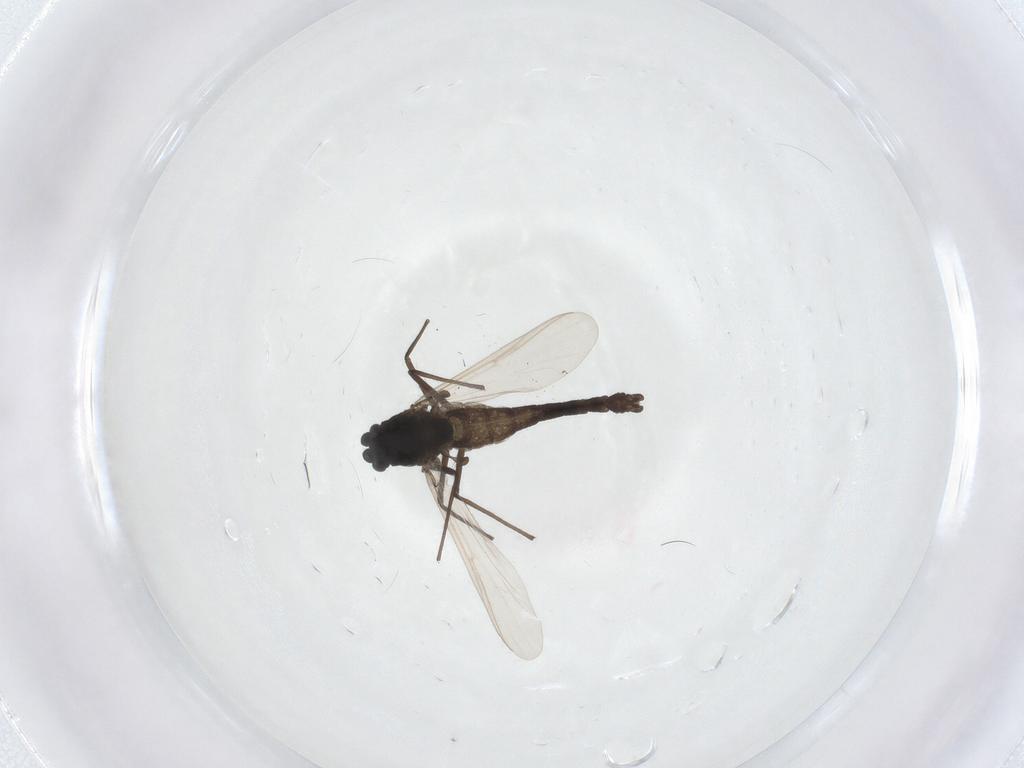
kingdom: Animalia
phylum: Arthropoda
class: Insecta
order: Diptera
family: Chironomidae
